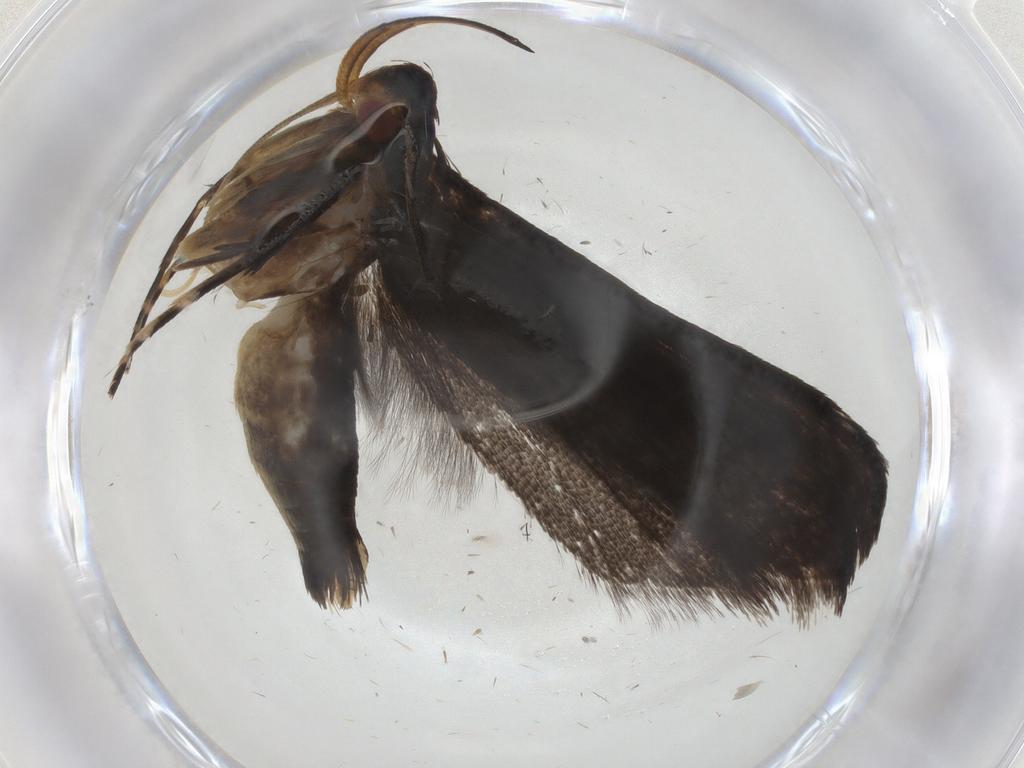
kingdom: Animalia
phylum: Arthropoda
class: Insecta
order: Lepidoptera
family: Gelechiidae
